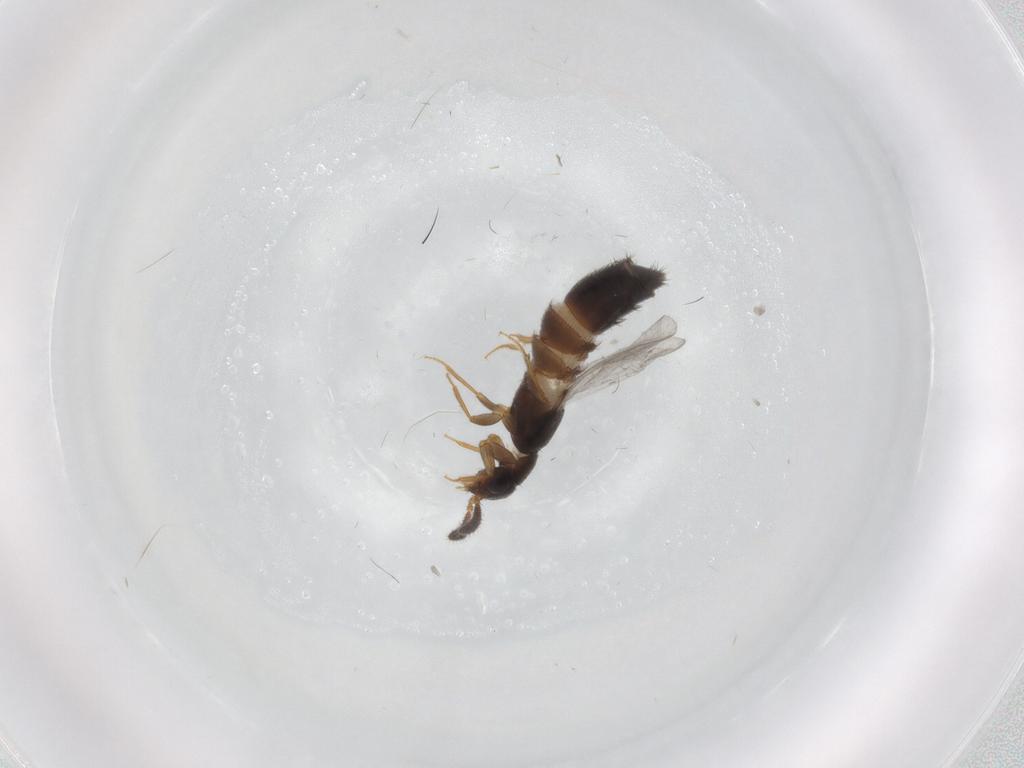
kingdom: Animalia
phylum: Arthropoda
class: Insecta
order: Coleoptera
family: Staphylinidae
